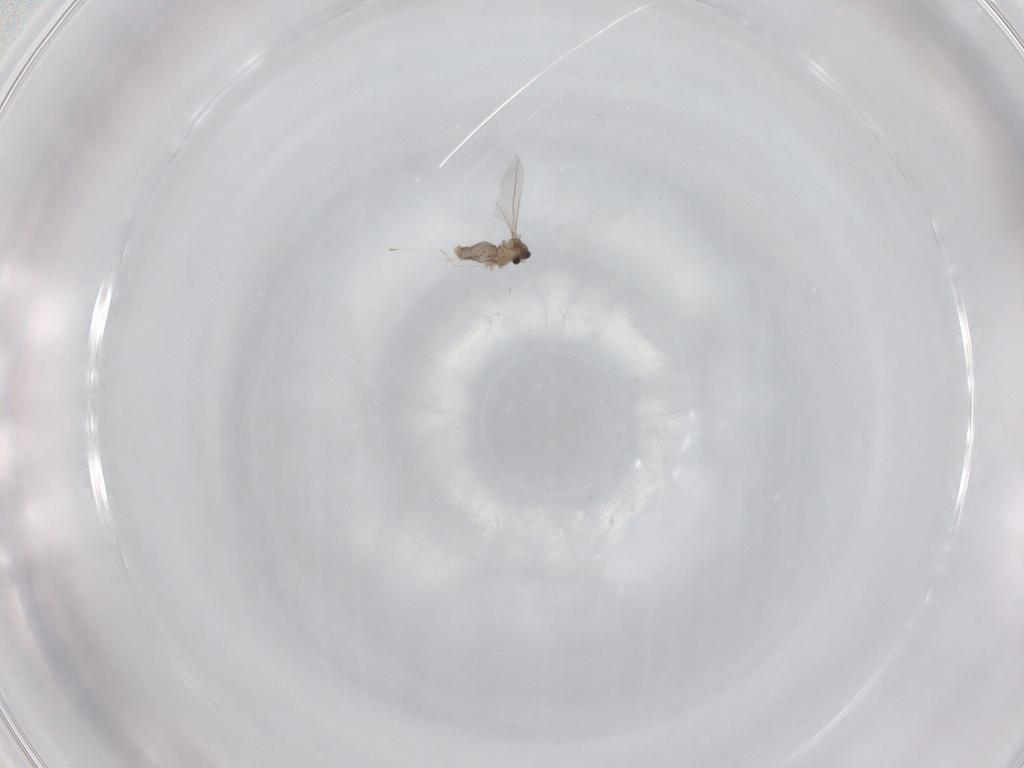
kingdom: Animalia
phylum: Arthropoda
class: Insecta
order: Diptera
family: Cecidomyiidae
